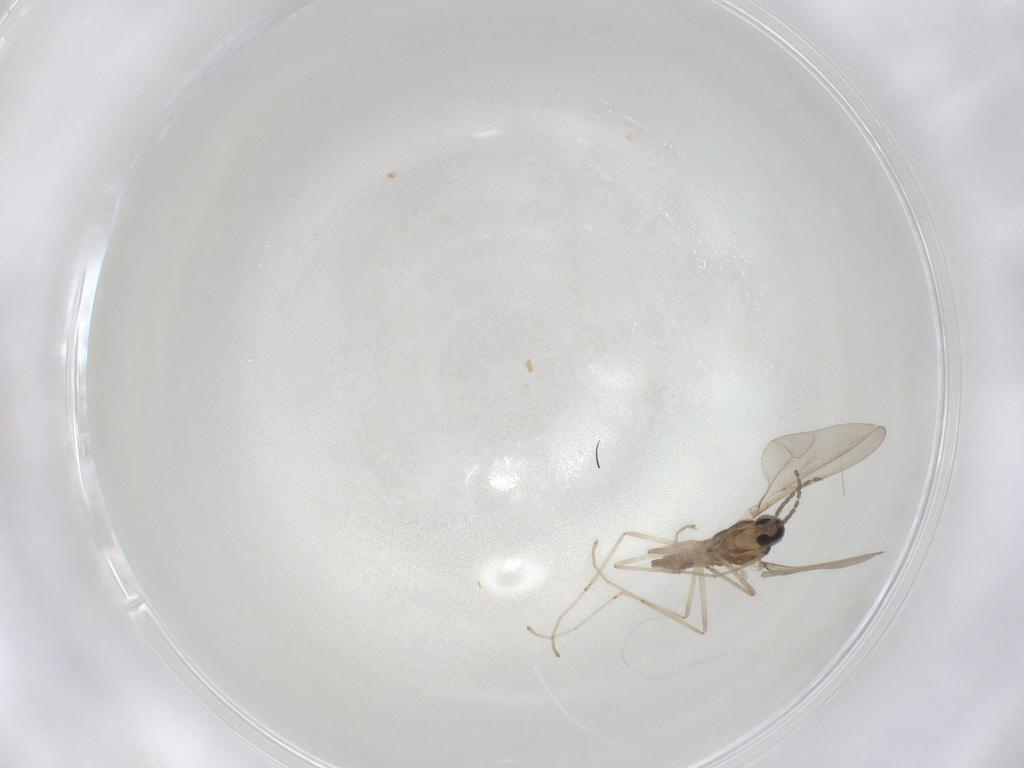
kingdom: Animalia
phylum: Arthropoda
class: Insecta
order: Diptera
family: Cecidomyiidae
